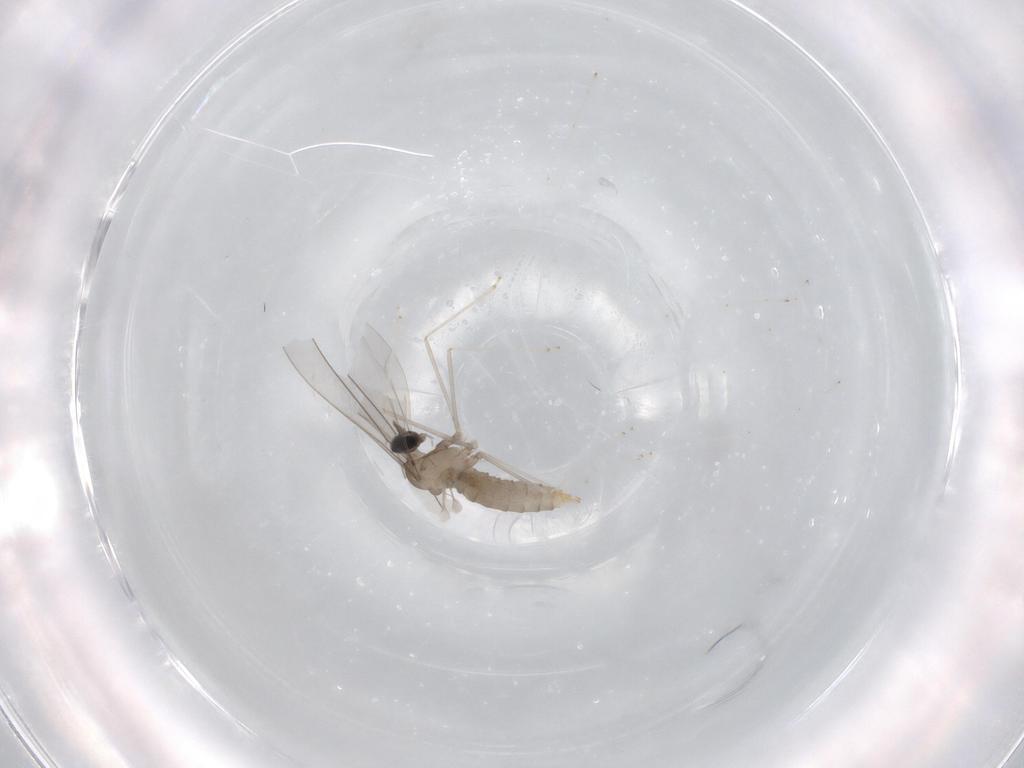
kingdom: Animalia
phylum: Arthropoda
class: Insecta
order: Diptera
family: Cecidomyiidae
